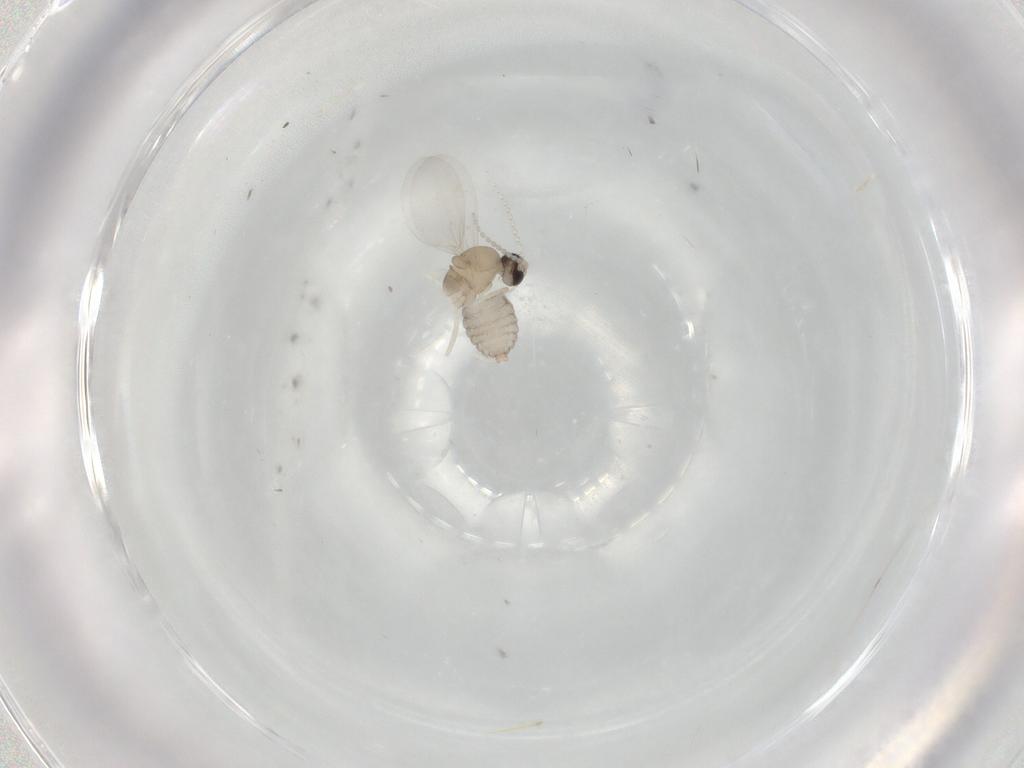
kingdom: Animalia
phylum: Arthropoda
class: Insecta
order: Diptera
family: Cecidomyiidae
